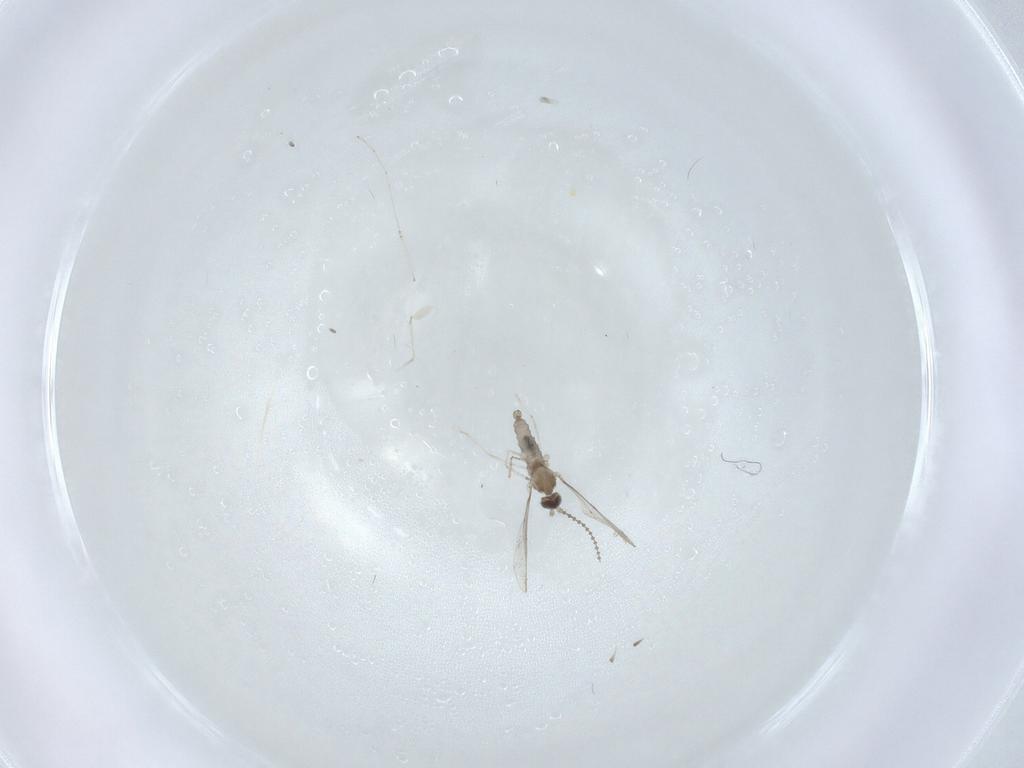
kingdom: Animalia
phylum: Arthropoda
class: Insecta
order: Diptera
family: Cecidomyiidae
